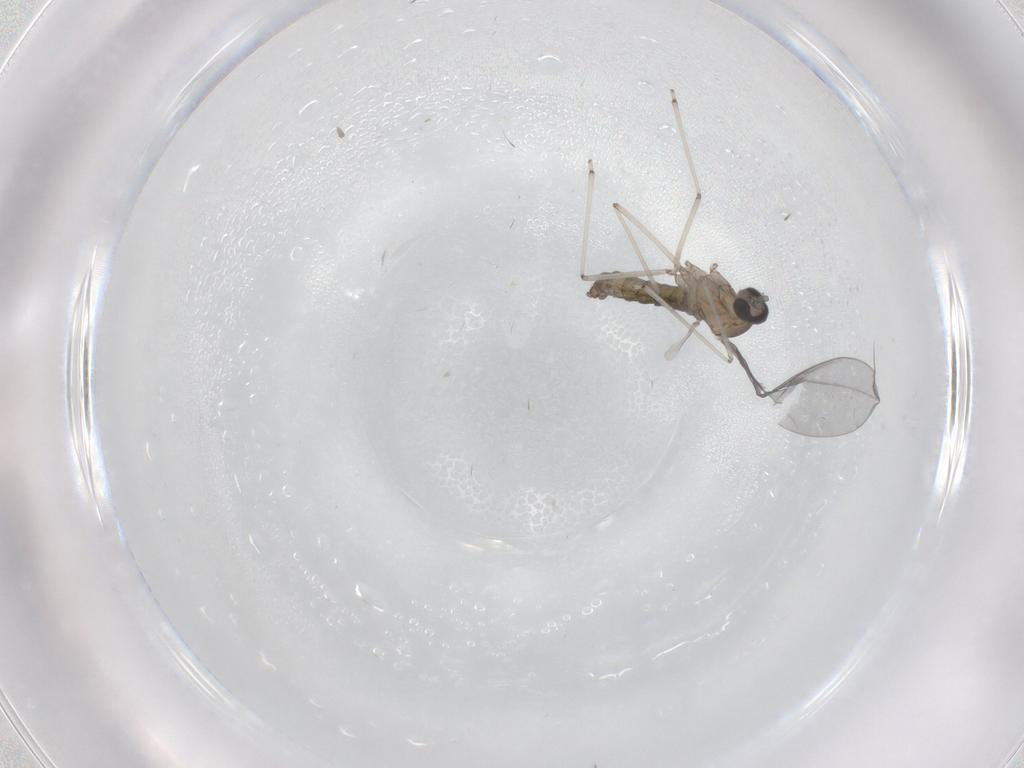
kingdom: Animalia
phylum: Arthropoda
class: Insecta
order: Diptera
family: Cecidomyiidae
